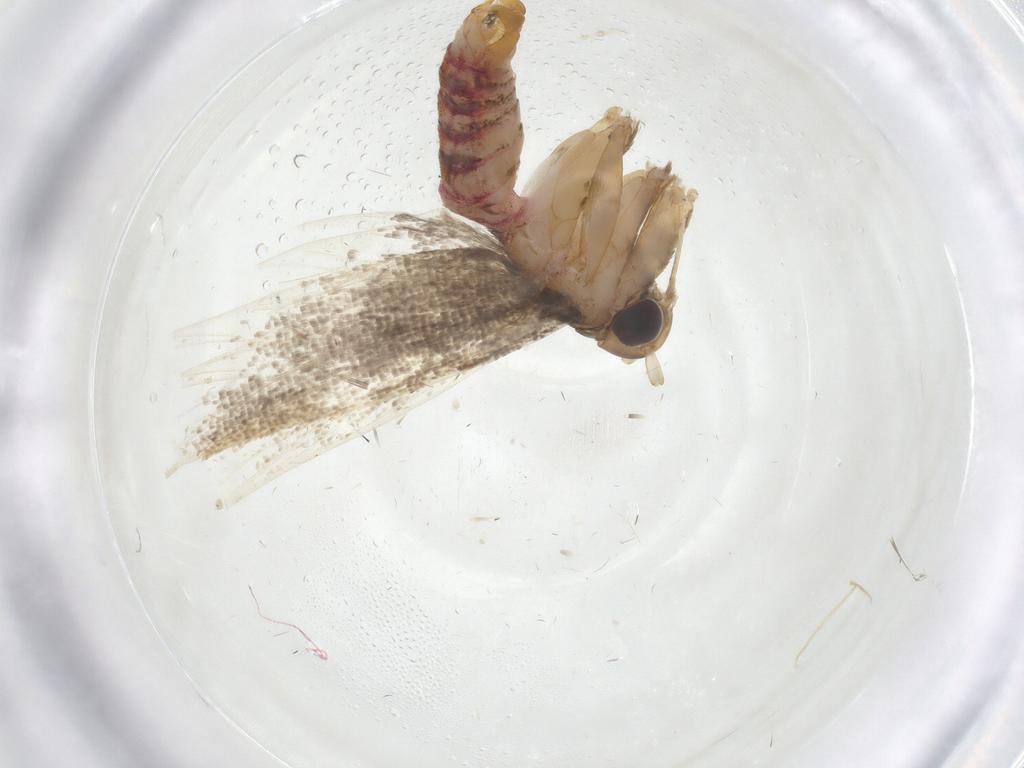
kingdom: Animalia
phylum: Arthropoda
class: Insecta
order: Lepidoptera
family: Lecithoceridae
